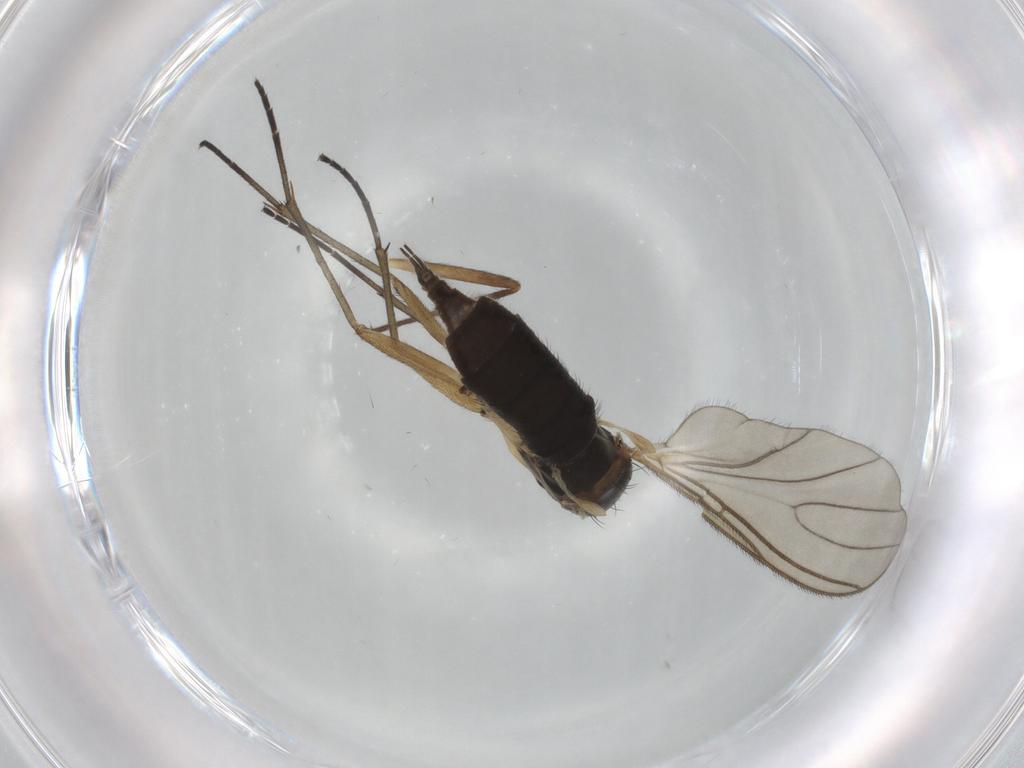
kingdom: Animalia
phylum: Arthropoda
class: Insecta
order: Diptera
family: Sciaridae
